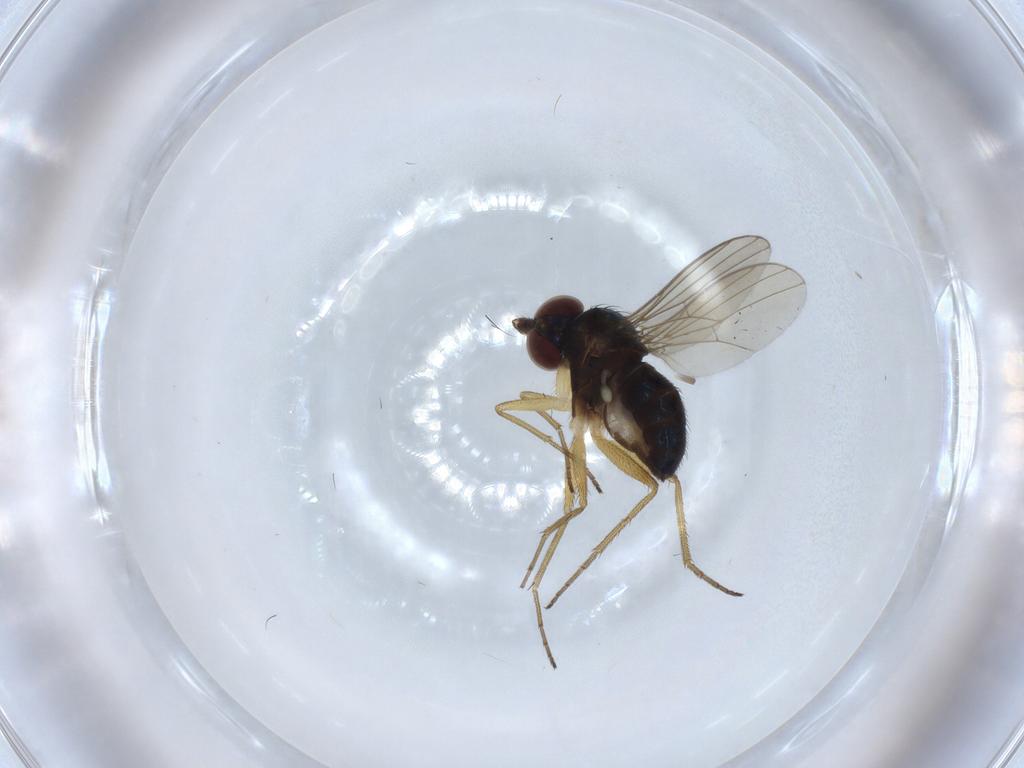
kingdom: Animalia
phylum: Arthropoda
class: Insecta
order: Diptera
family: Dolichopodidae
